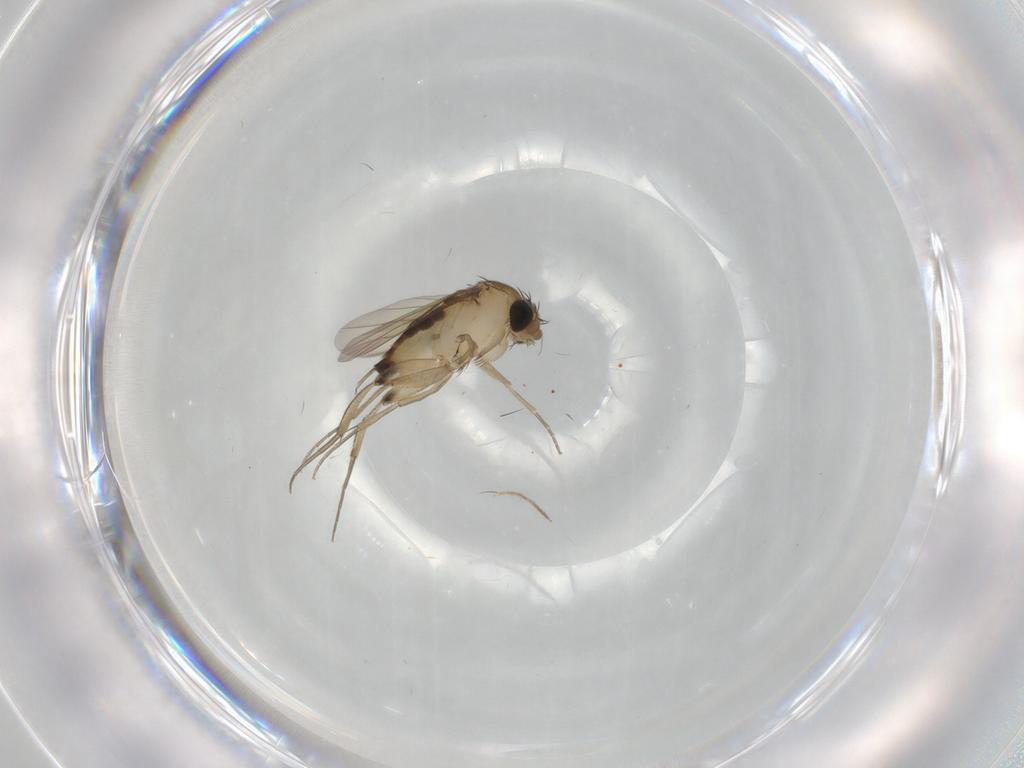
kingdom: Animalia
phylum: Arthropoda
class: Insecta
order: Diptera
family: Phoridae
